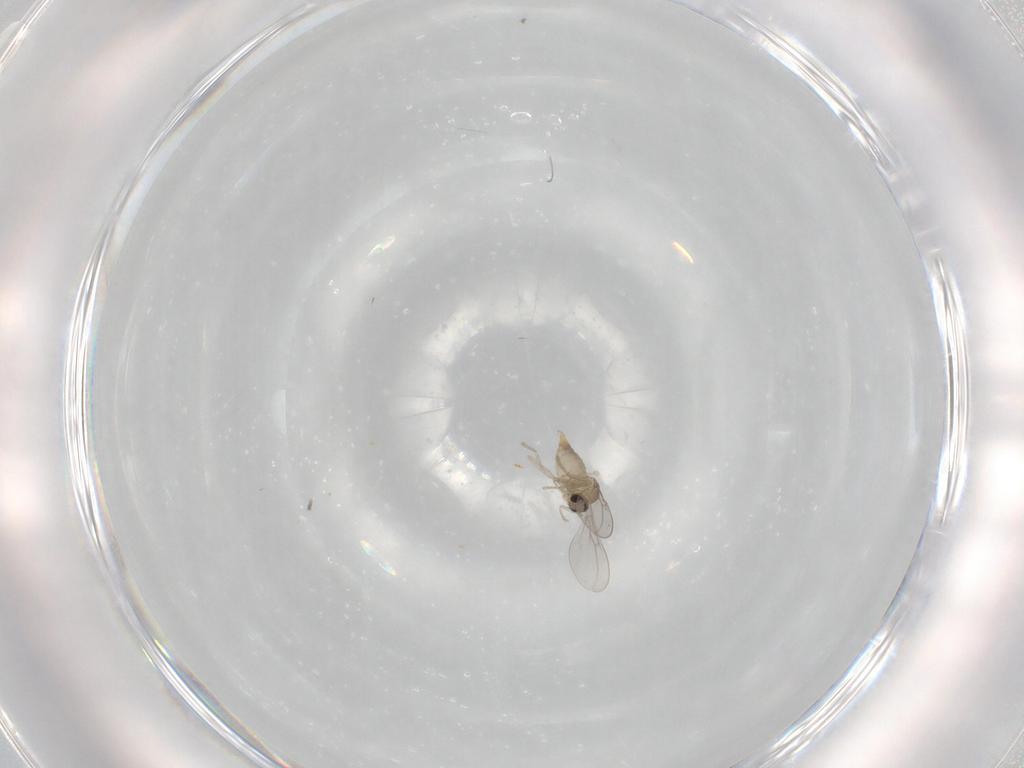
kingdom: Animalia
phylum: Arthropoda
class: Insecta
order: Diptera
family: Cecidomyiidae
